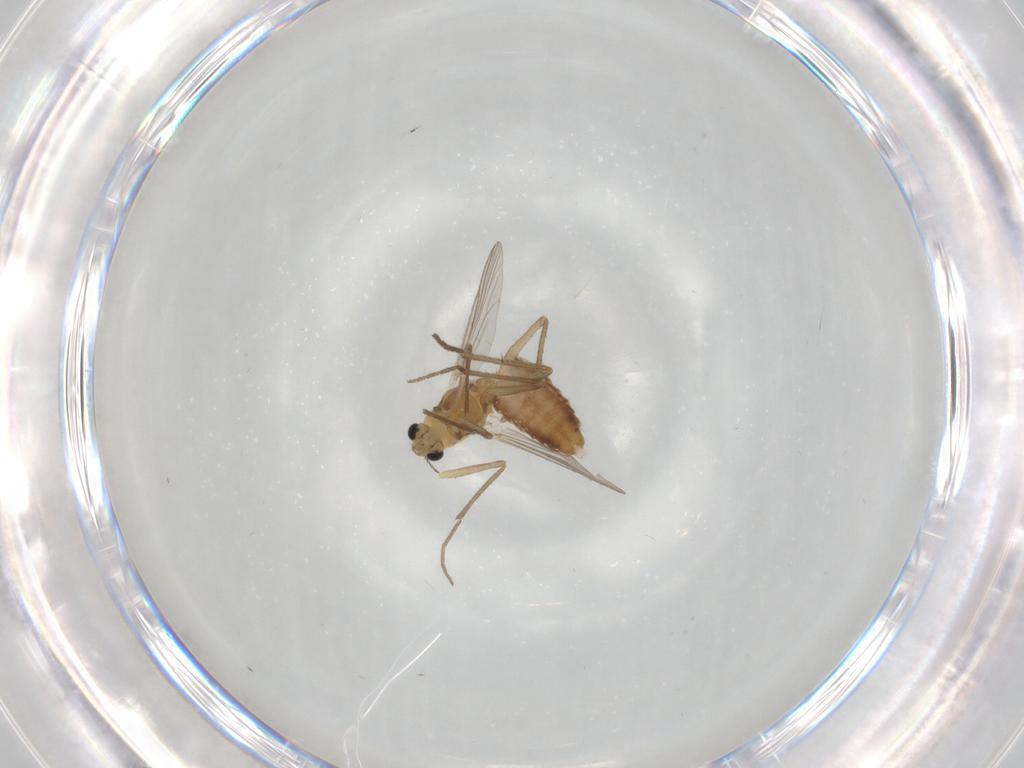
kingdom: Animalia
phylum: Arthropoda
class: Insecta
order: Diptera
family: Chironomidae
